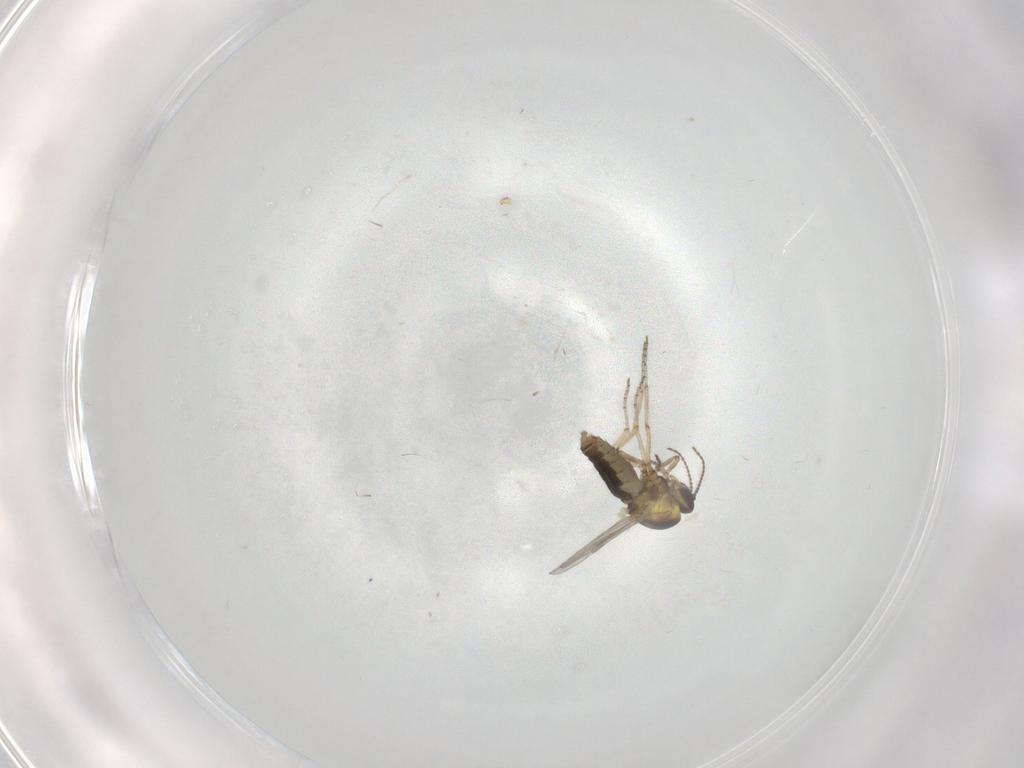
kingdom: Animalia
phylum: Arthropoda
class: Insecta
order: Diptera
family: Ceratopogonidae
